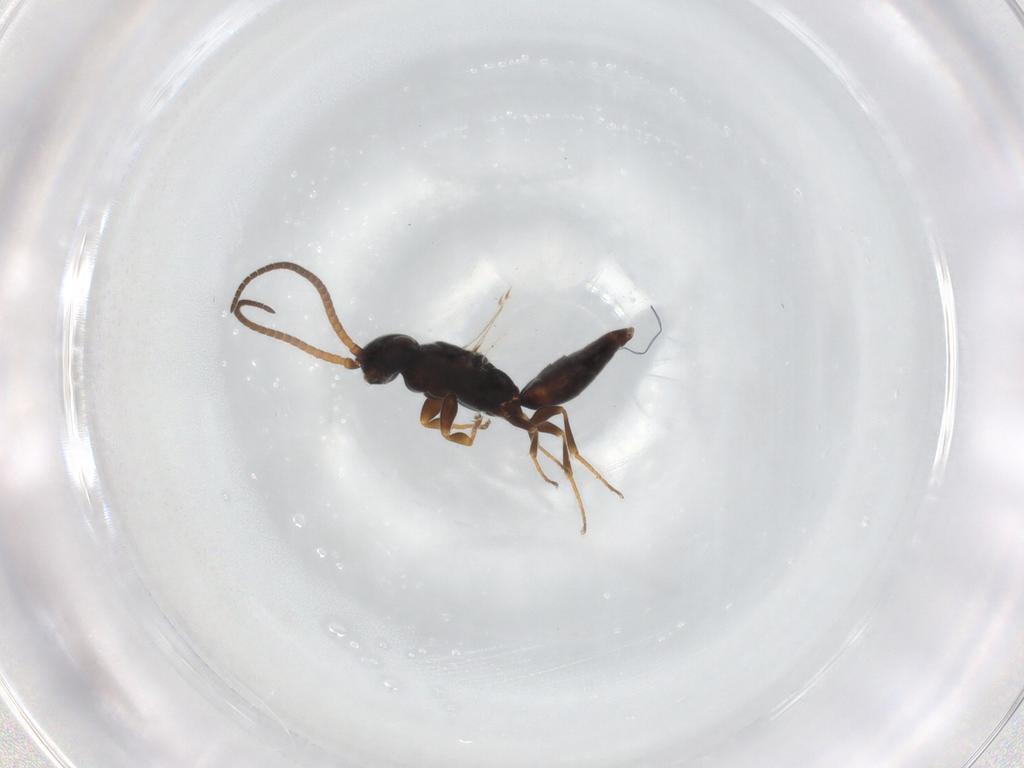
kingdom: Animalia
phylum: Arthropoda
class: Insecta
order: Hymenoptera
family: Sclerogibbidae
